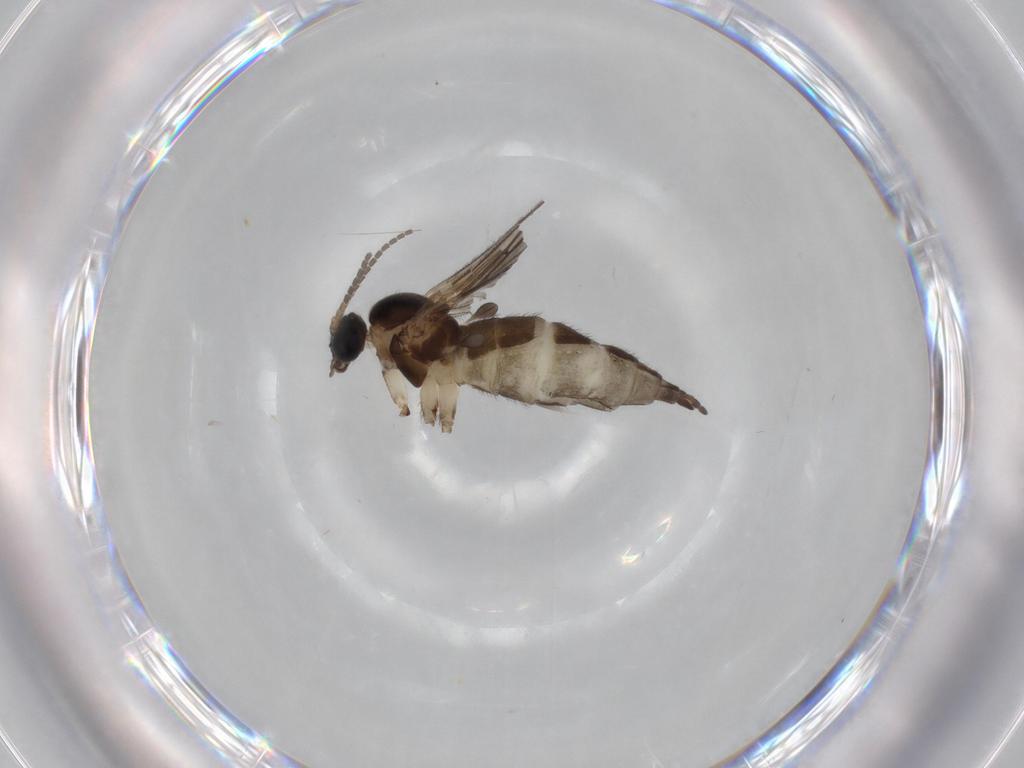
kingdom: Animalia
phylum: Arthropoda
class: Insecta
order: Diptera
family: Sciaridae
